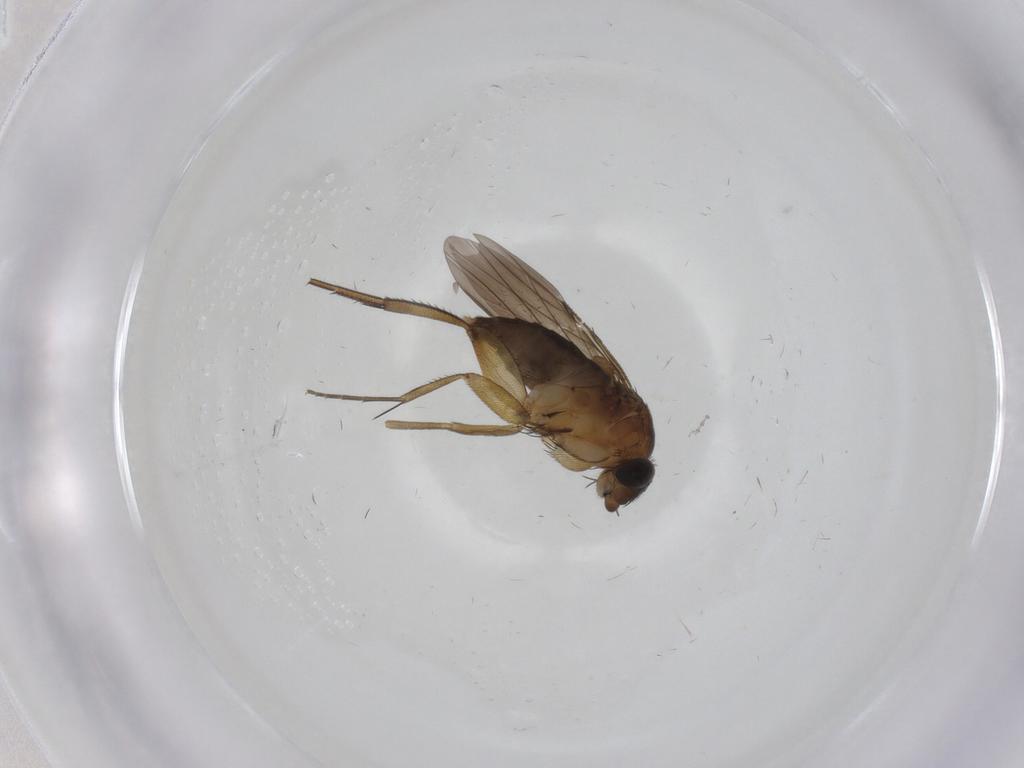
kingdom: Animalia
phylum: Arthropoda
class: Insecta
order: Diptera
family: Phoridae
